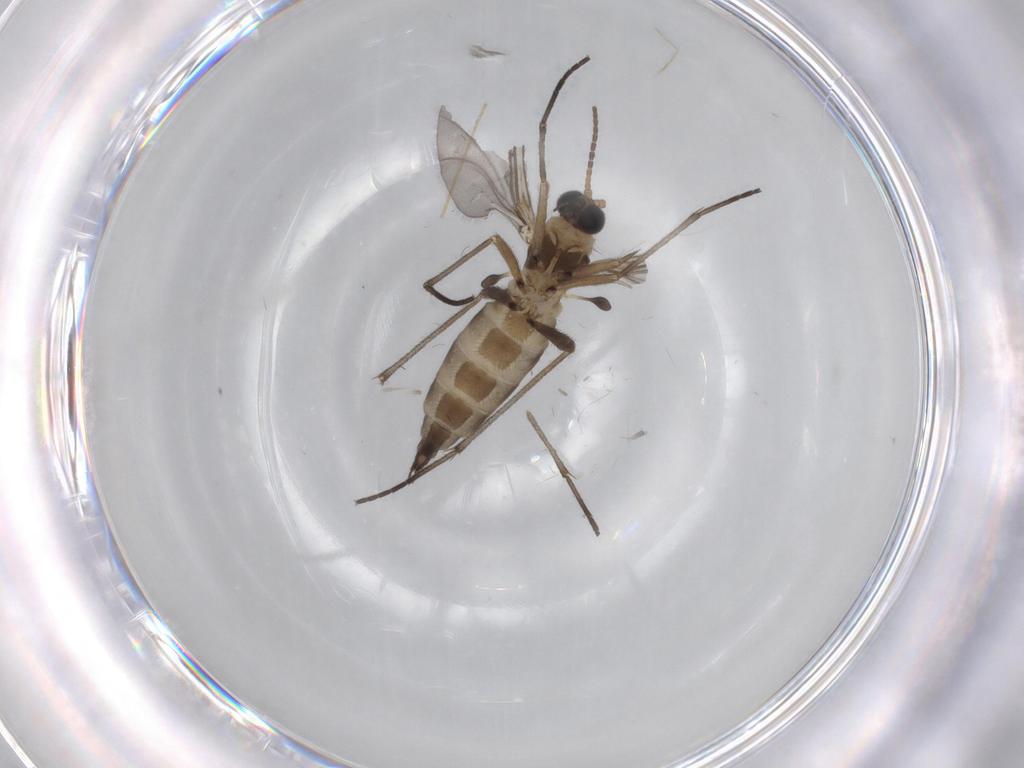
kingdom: Animalia
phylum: Arthropoda
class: Insecta
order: Diptera
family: Sciaridae
